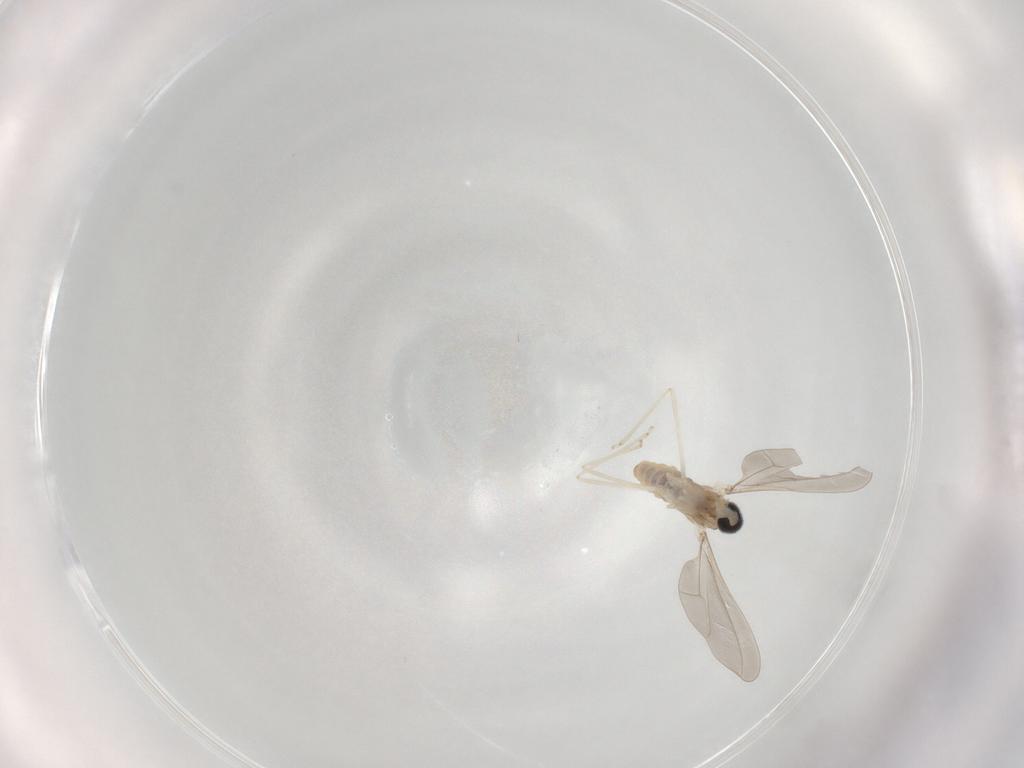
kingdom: Animalia
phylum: Arthropoda
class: Insecta
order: Diptera
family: Cecidomyiidae
